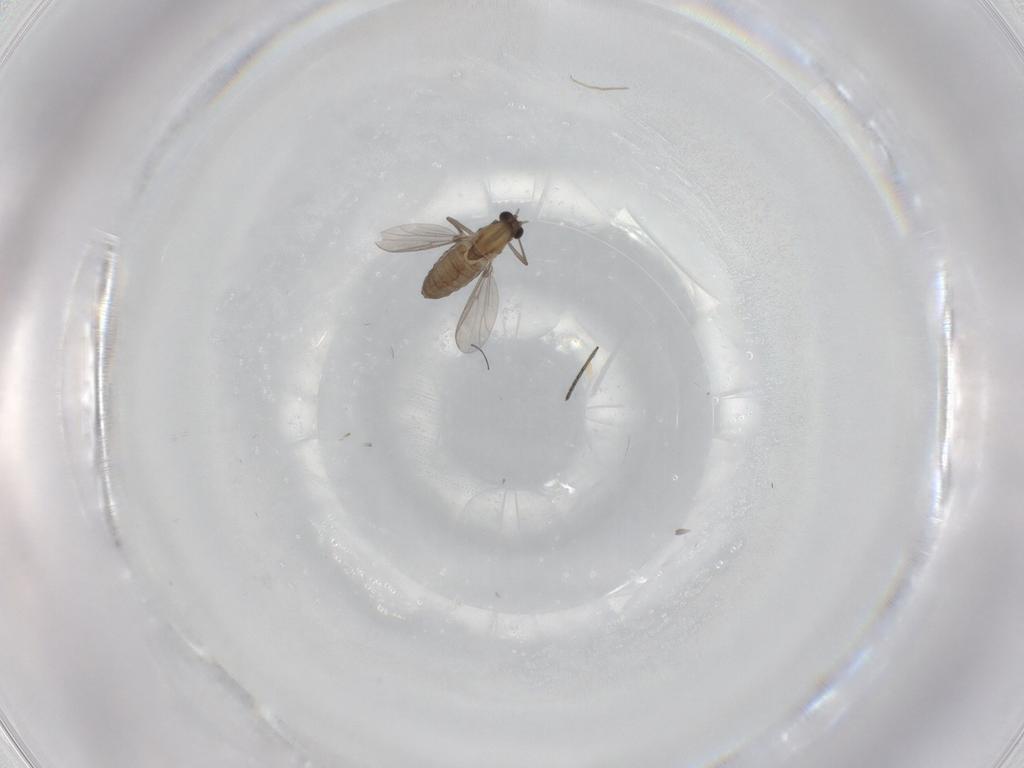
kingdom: Animalia
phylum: Arthropoda
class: Insecta
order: Diptera
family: Chironomidae
